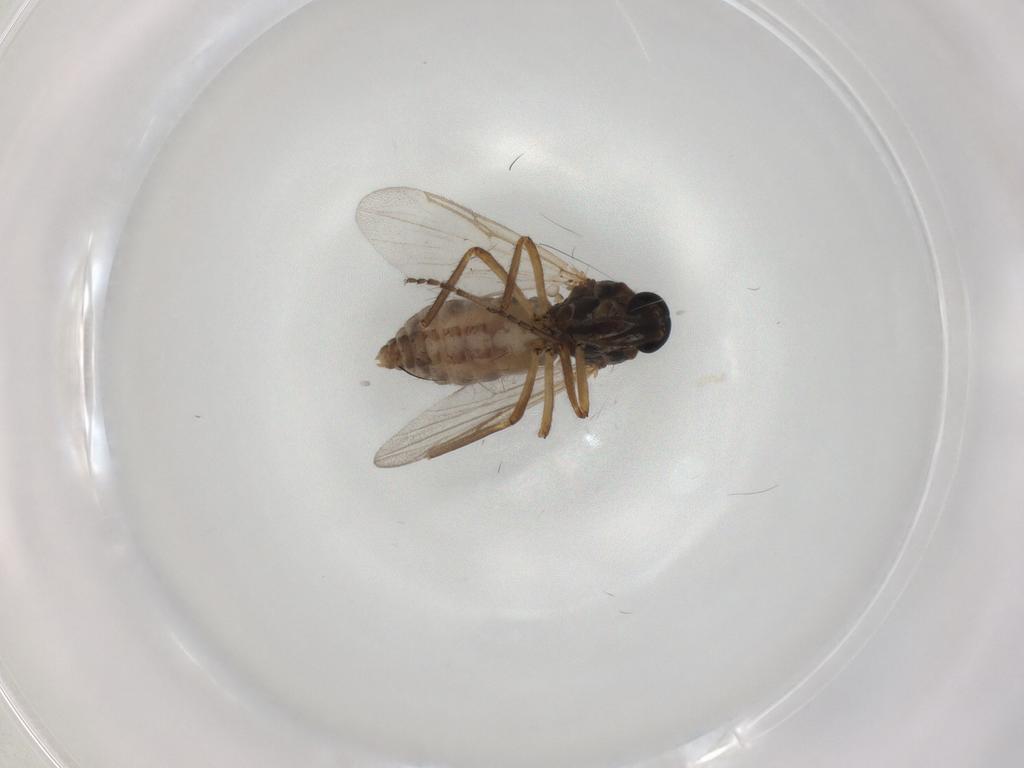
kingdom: Animalia
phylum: Arthropoda
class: Insecta
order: Diptera
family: Ceratopogonidae
